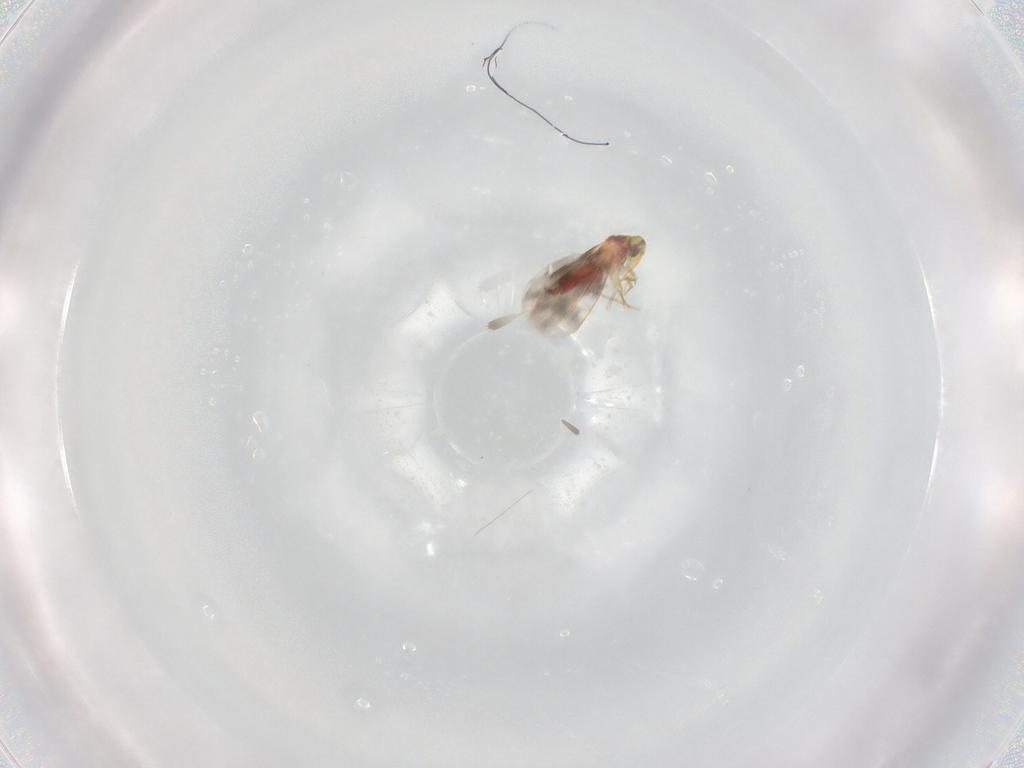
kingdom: Animalia
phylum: Arthropoda
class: Insecta
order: Hemiptera
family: Aleyrodidae
